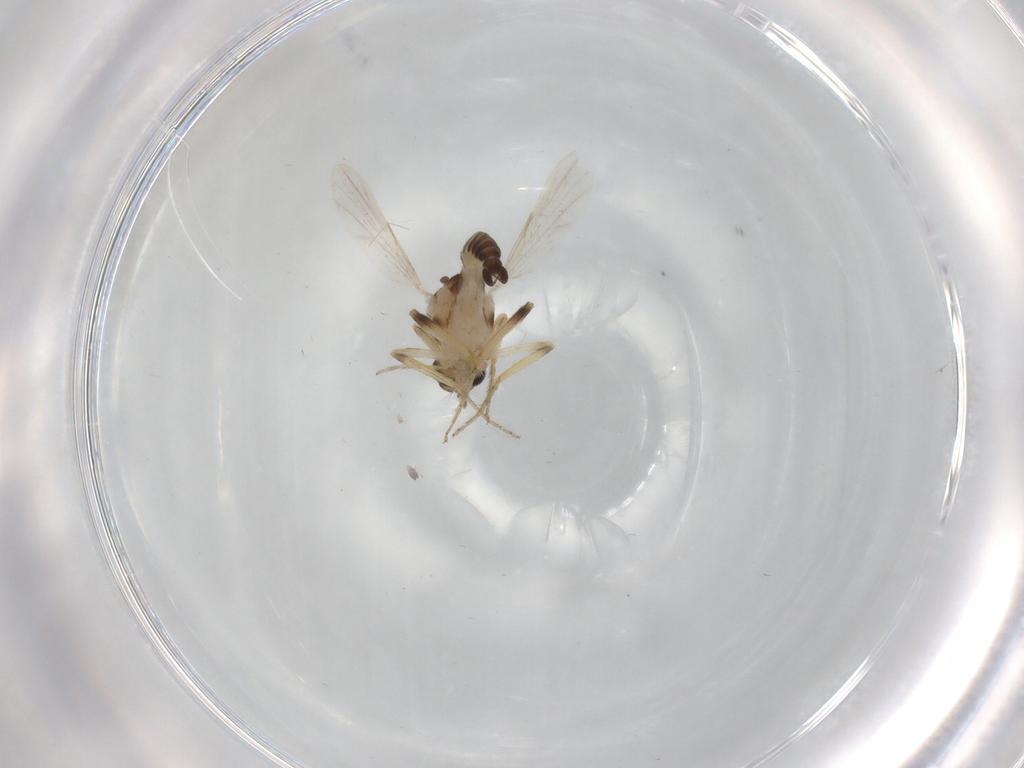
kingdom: Animalia
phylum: Arthropoda
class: Insecta
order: Diptera
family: Cecidomyiidae
